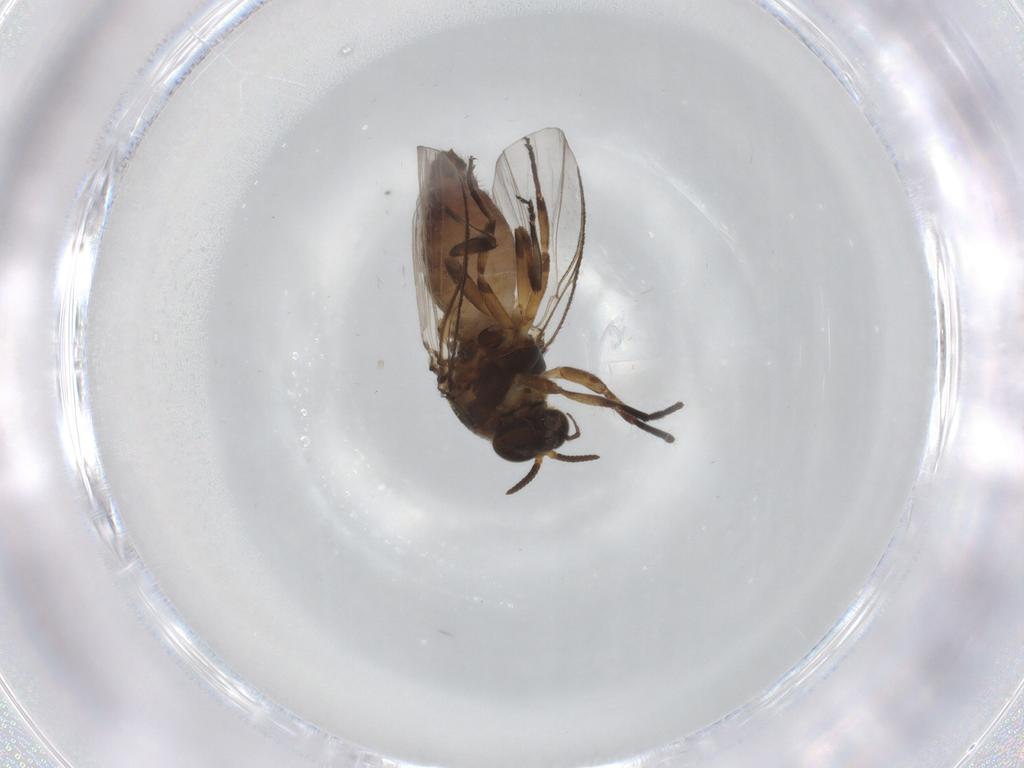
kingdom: Animalia
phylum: Arthropoda
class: Insecta
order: Diptera
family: Simuliidae
